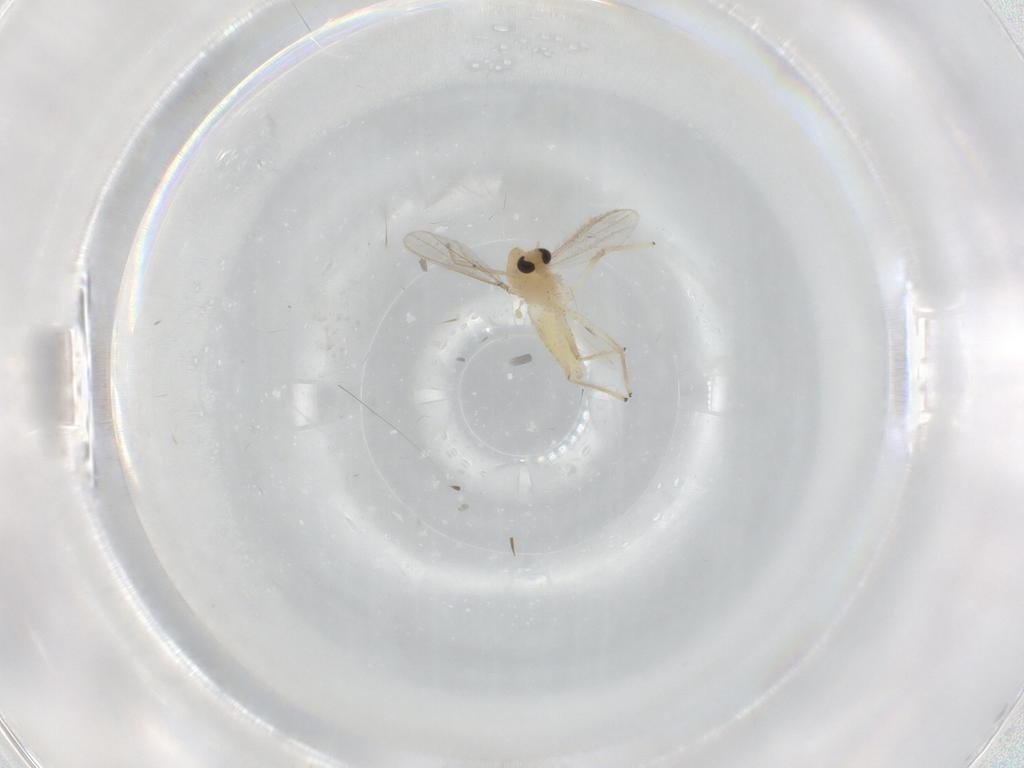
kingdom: Animalia
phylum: Arthropoda
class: Insecta
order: Diptera
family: Chironomidae
